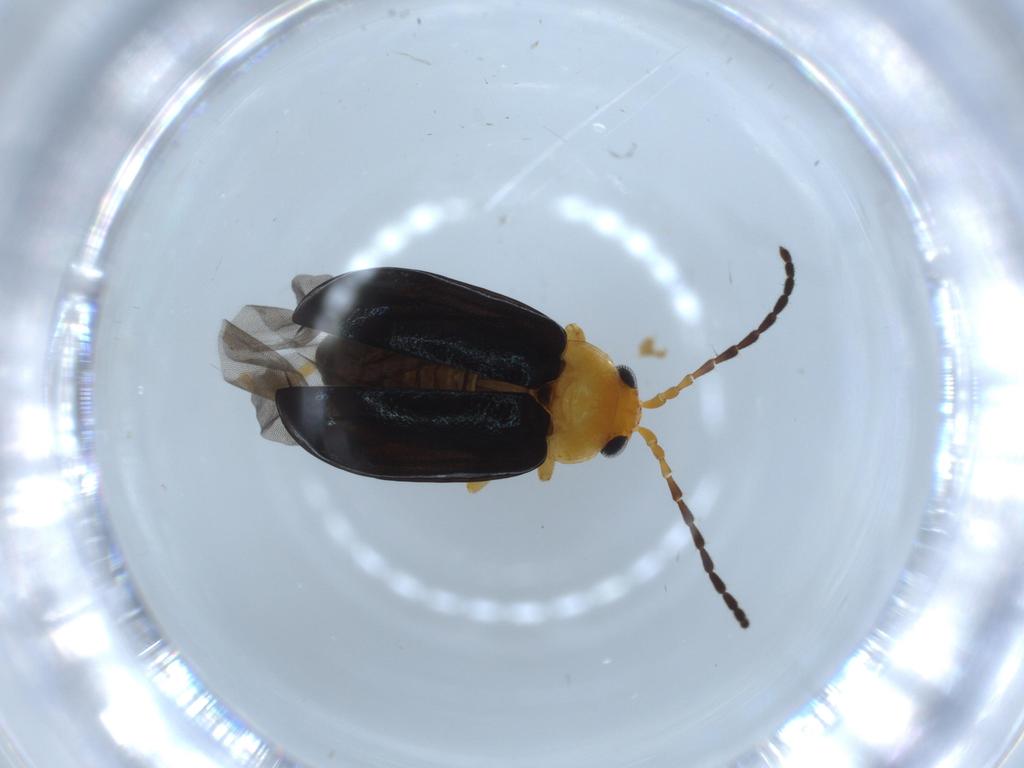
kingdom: Animalia
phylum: Arthropoda
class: Insecta
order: Coleoptera
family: Chrysomelidae
